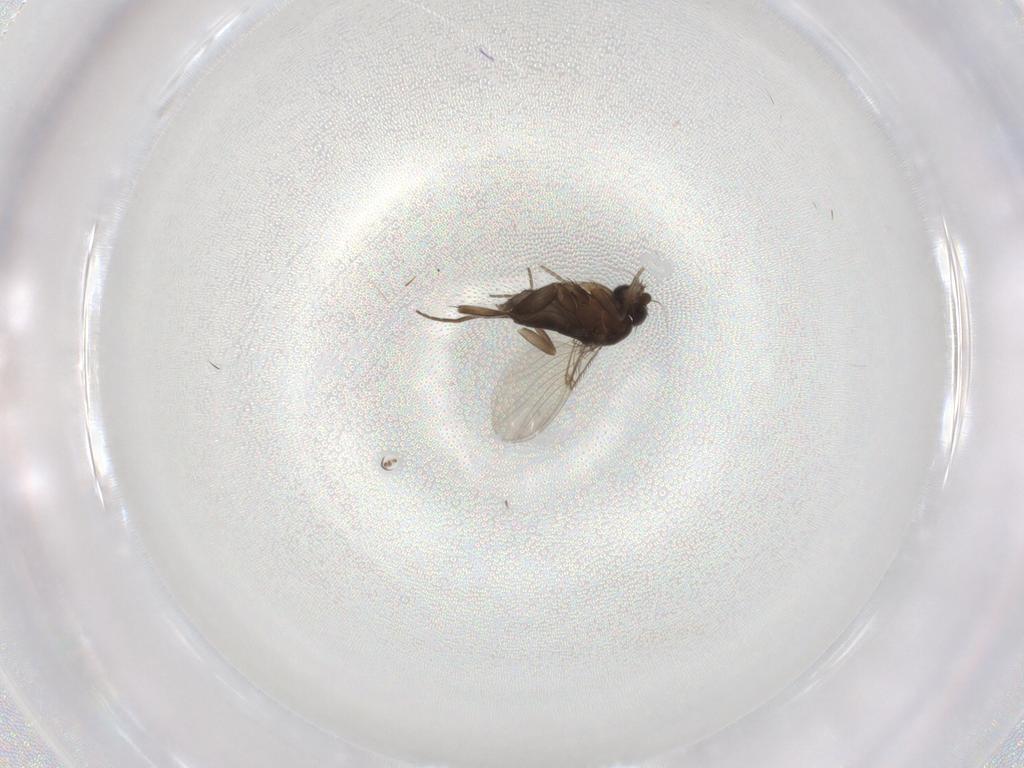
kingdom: Animalia
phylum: Arthropoda
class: Insecta
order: Diptera
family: Phoridae
